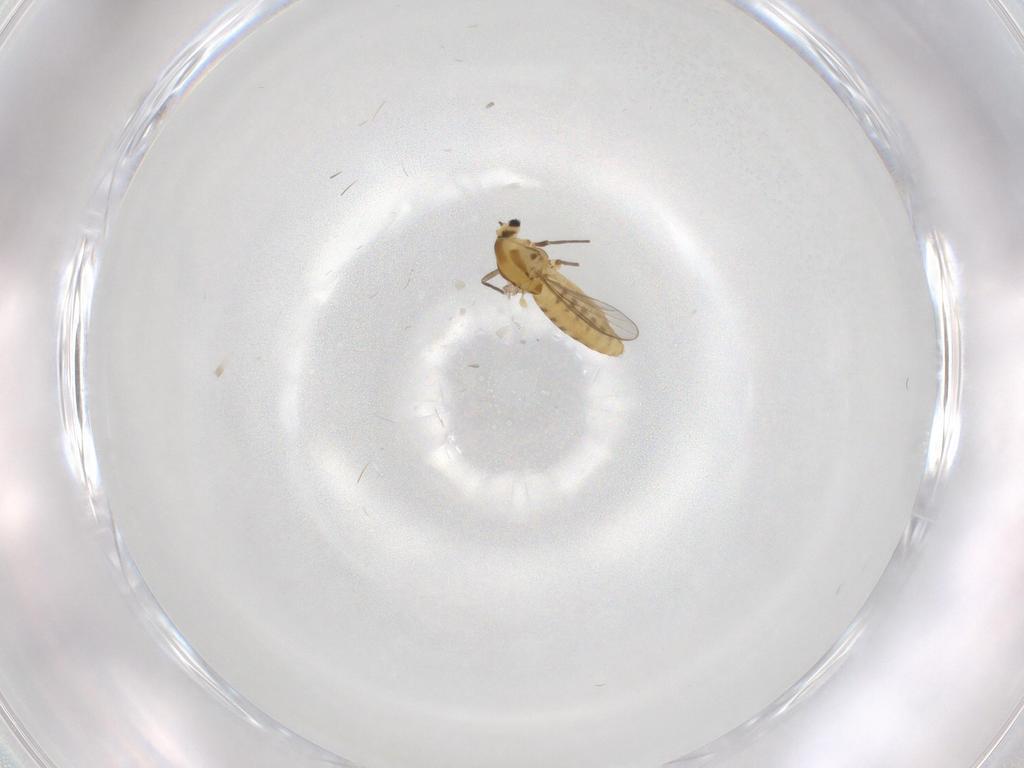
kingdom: Animalia
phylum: Arthropoda
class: Insecta
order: Diptera
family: Chironomidae
